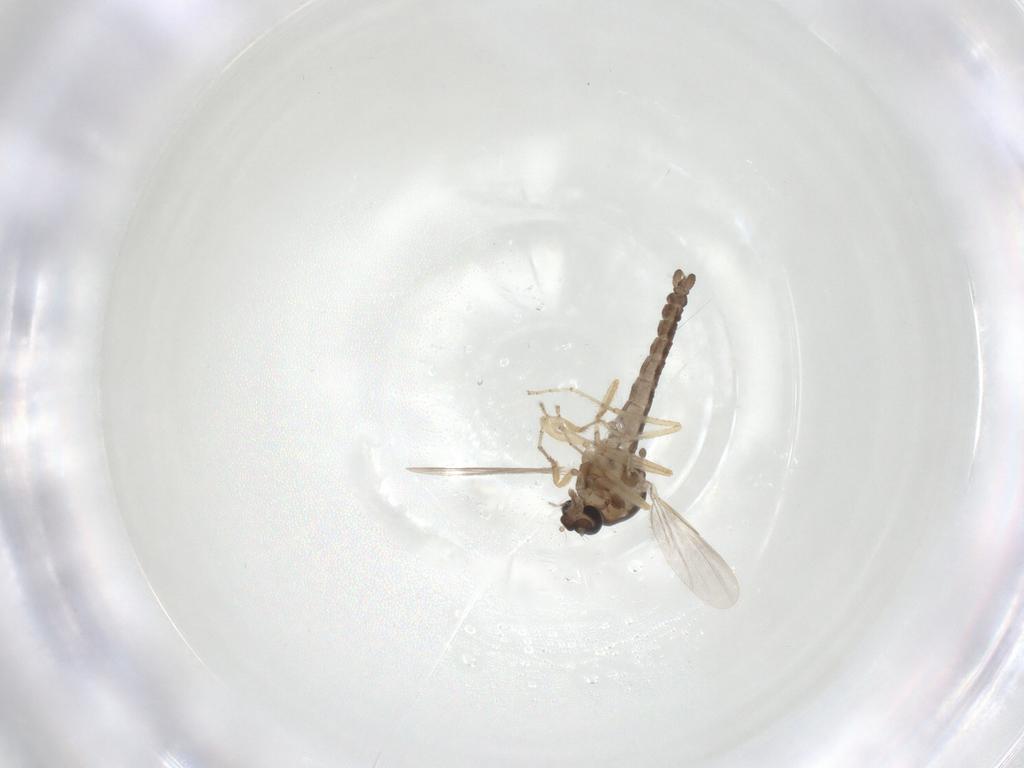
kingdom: Animalia
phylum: Arthropoda
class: Insecta
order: Diptera
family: Ceratopogonidae
